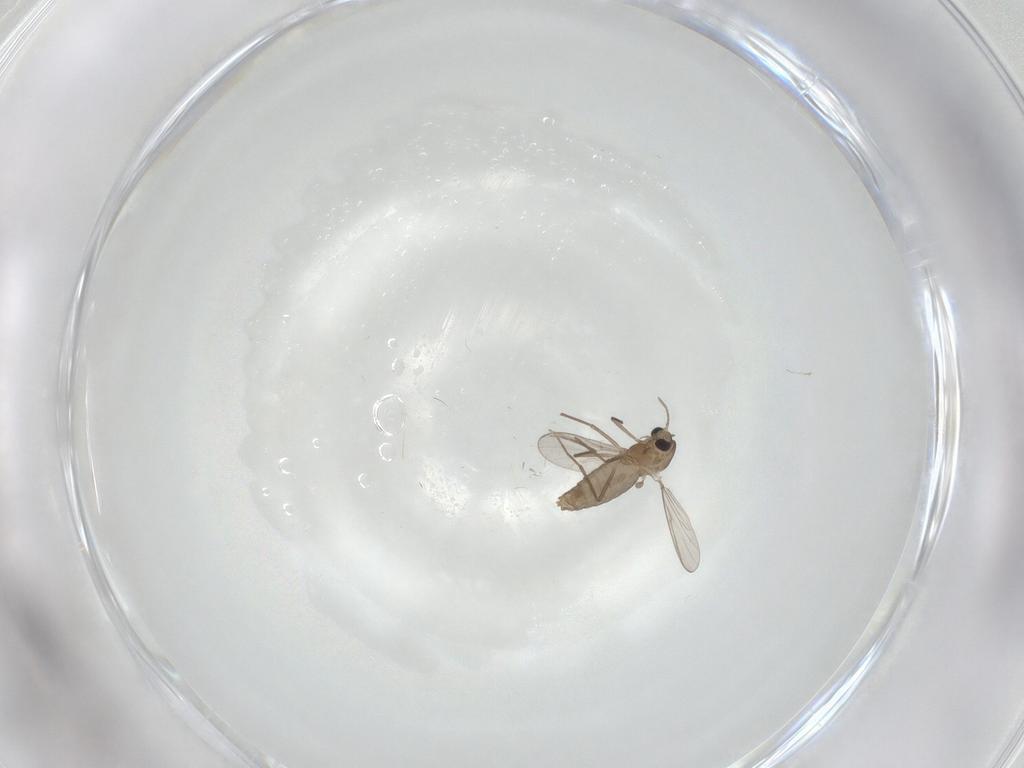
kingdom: Animalia
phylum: Arthropoda
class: Insecta
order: Diptera
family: Chironomidae
